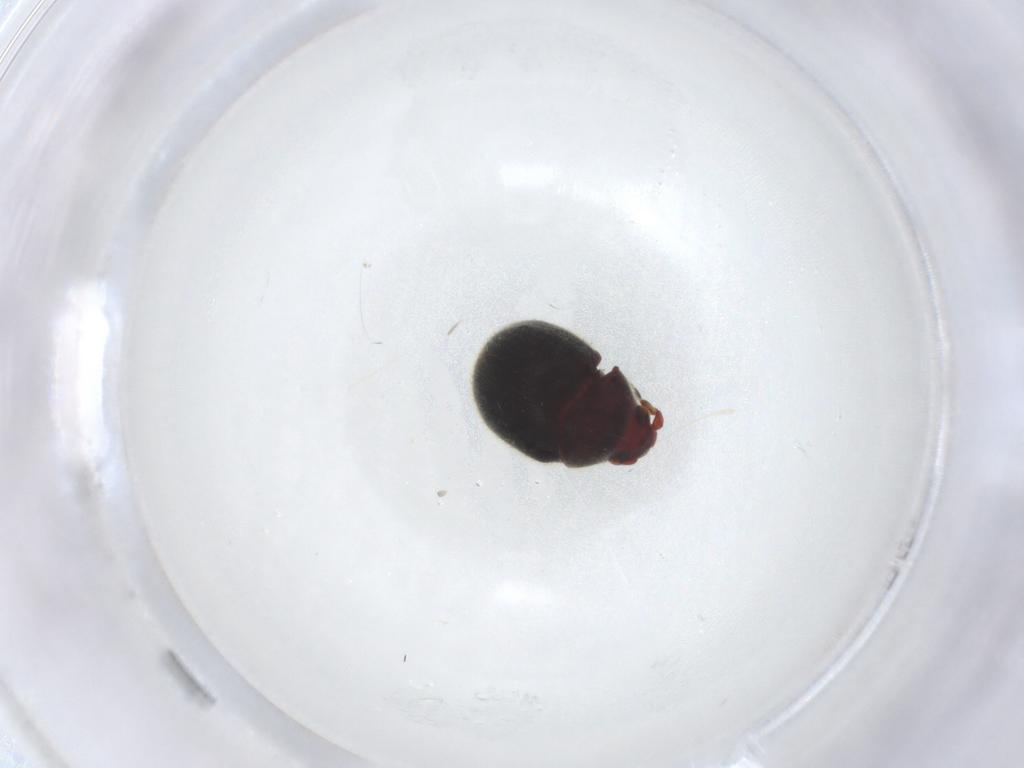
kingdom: Animalia
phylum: Arthropoda
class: Insecta
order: Coleoptera
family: Ptinidae
